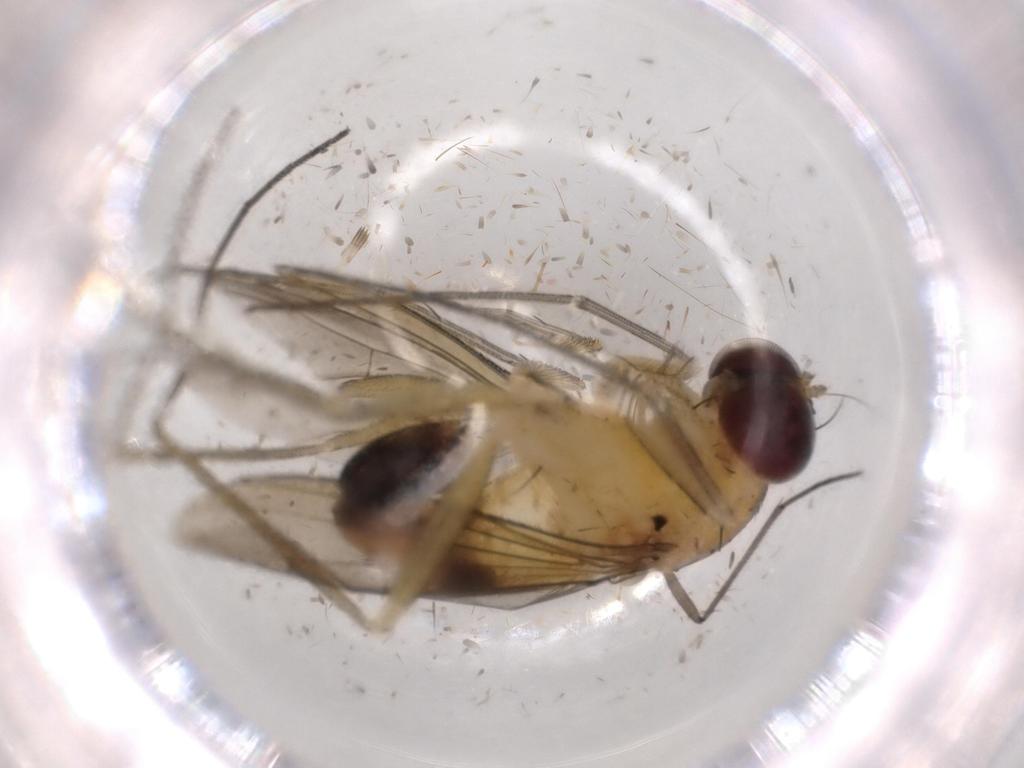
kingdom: Animalia
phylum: Arthropoda
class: Insecta
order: Diptera
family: Dolichopodidae
